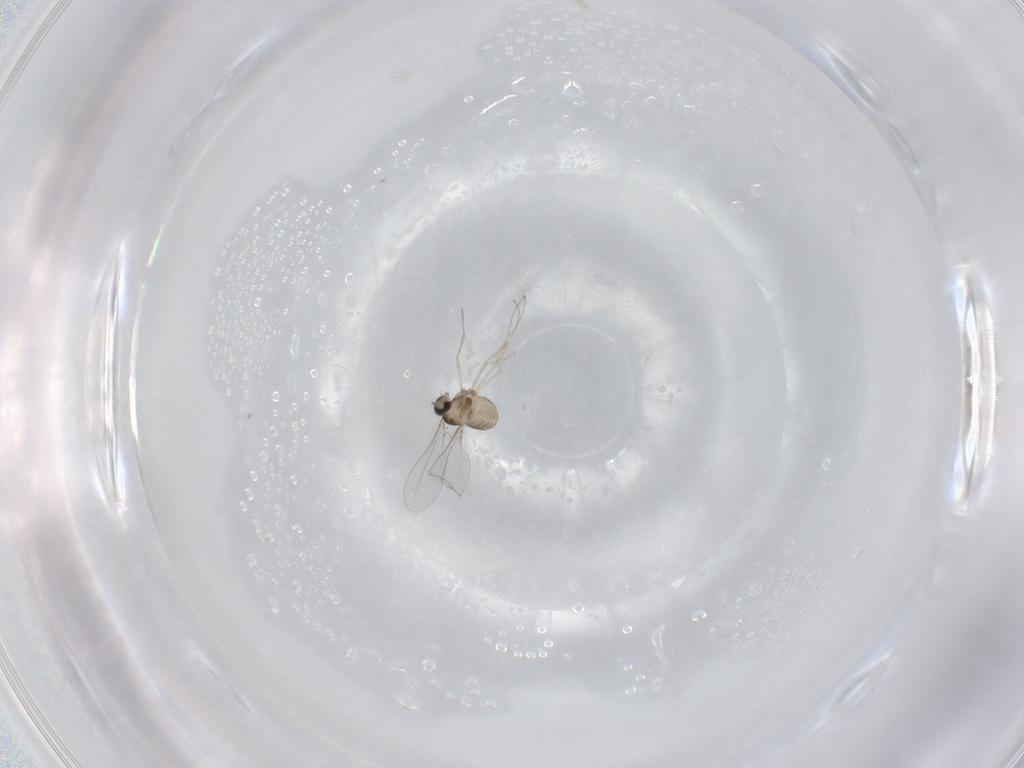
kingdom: Animalia
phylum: Arthropoda
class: Insecta
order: Diptera
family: Cecidomyiidae
